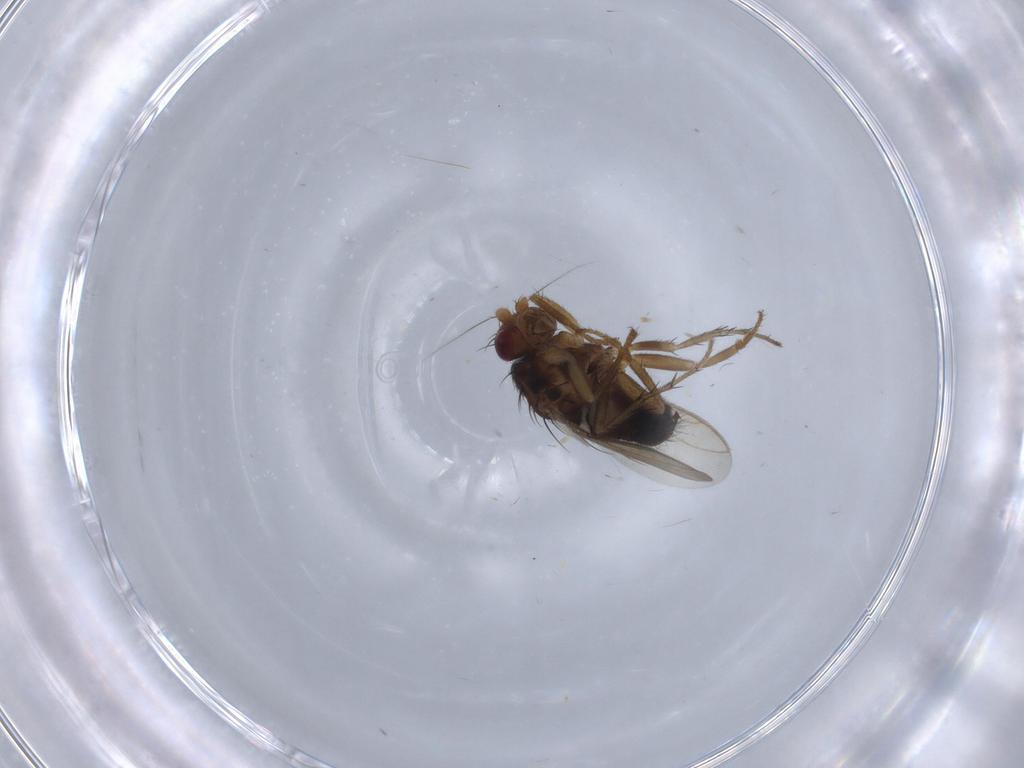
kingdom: Animalia
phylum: Arthropoda
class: Insecta
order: Diptera
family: Sphaeroceridae
